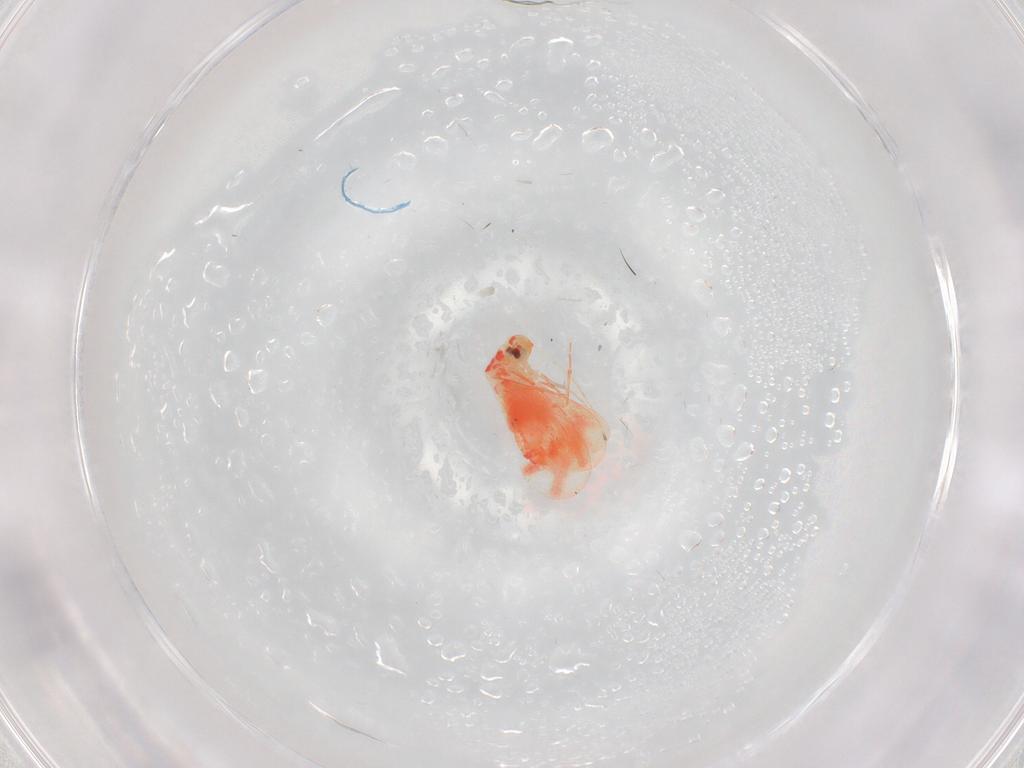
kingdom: Animalia
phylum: Arthropoda
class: Insecta
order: Hemiptera
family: Aleyrodidae
